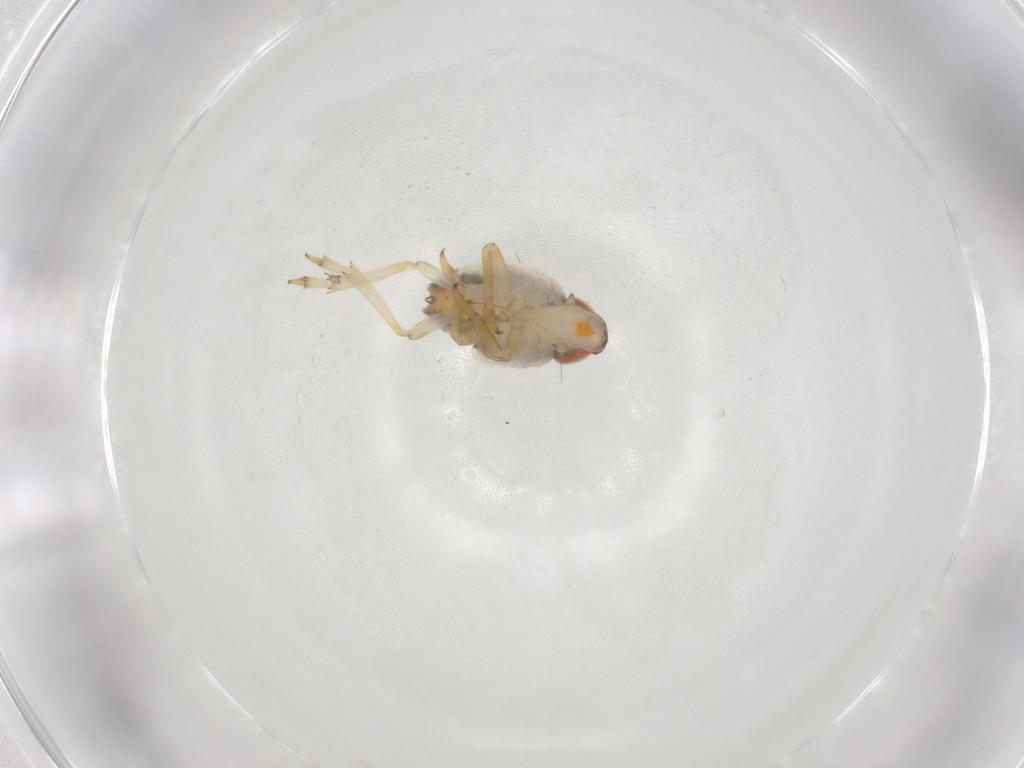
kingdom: Animalia
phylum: Arthropoda
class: Insecta
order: Hemiptera
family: Issidae
